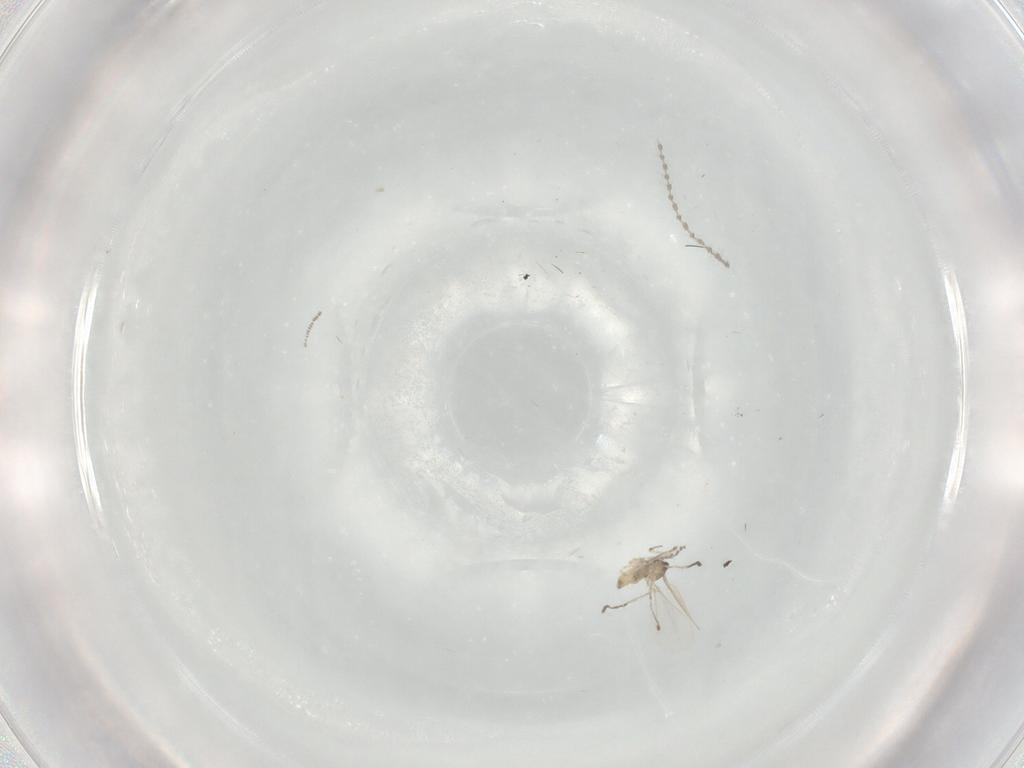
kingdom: Animalia
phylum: Arthropoda
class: Insecta
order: Diptera
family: Cecidomyiidae
